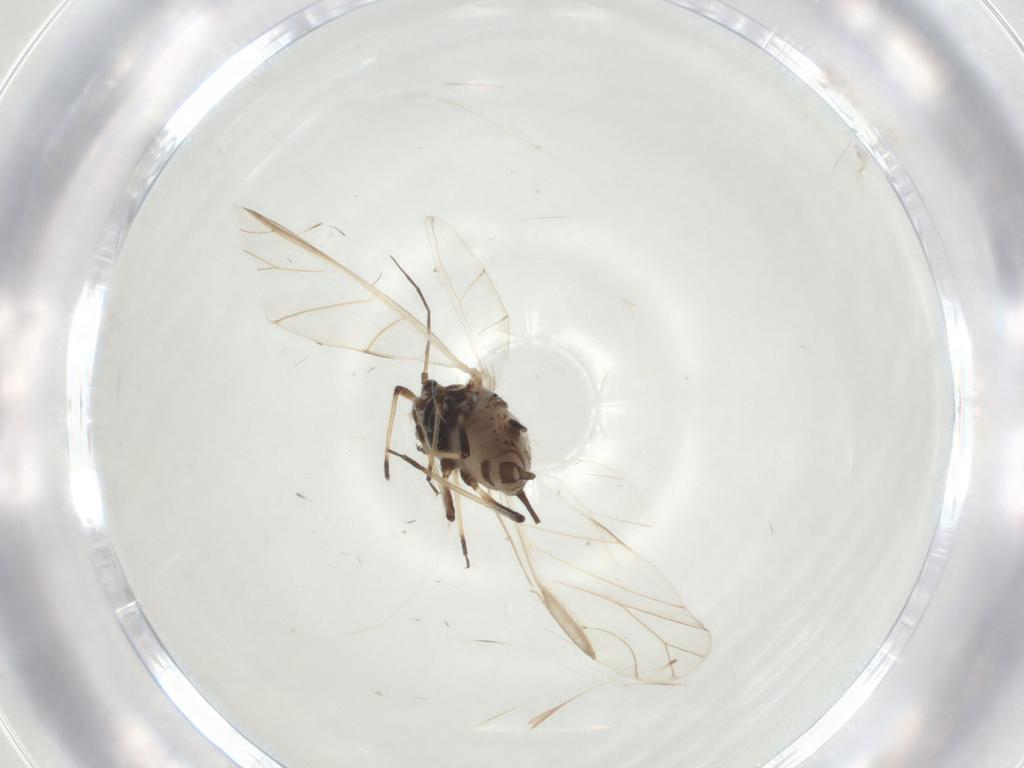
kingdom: Animalia
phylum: Arthropoda
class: Insecta
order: Hemiptera
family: Aphididae
